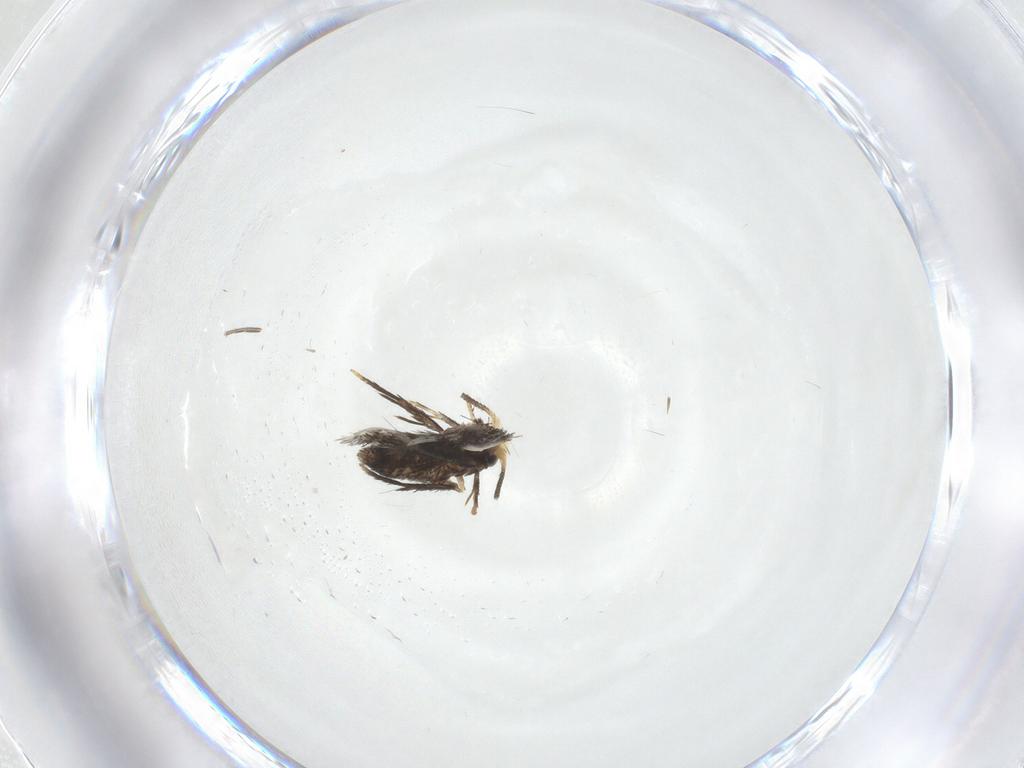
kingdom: Animalia
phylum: Arthropoda
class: Insecta
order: Lepidoptera
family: Nepticulidae
